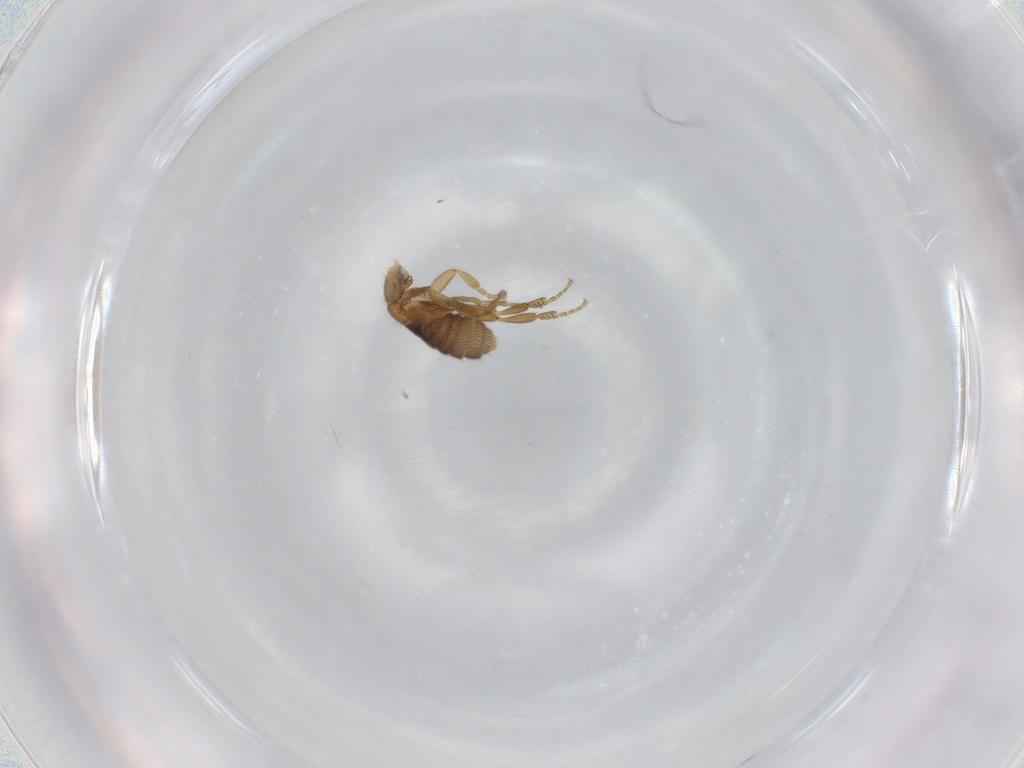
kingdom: Animalia
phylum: Arthropoda
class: Insecta
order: Diptera
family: Phoridae
